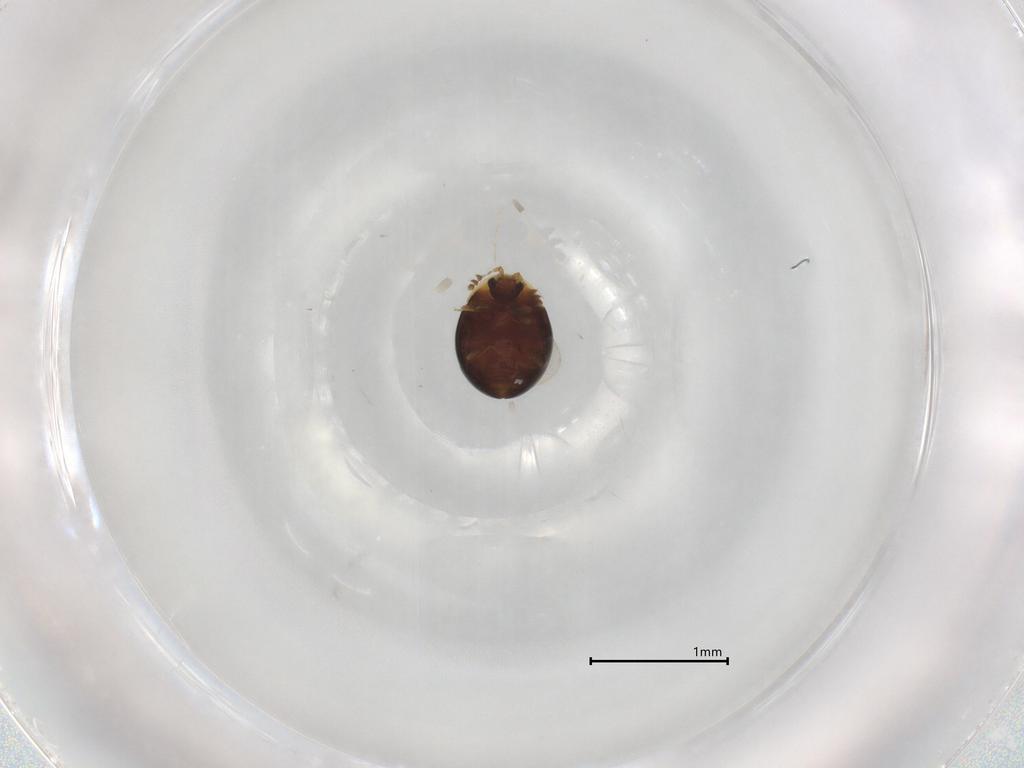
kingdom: Animalia
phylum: Arthropoda
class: Insecta
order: Coleoptera
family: Corylophidae
